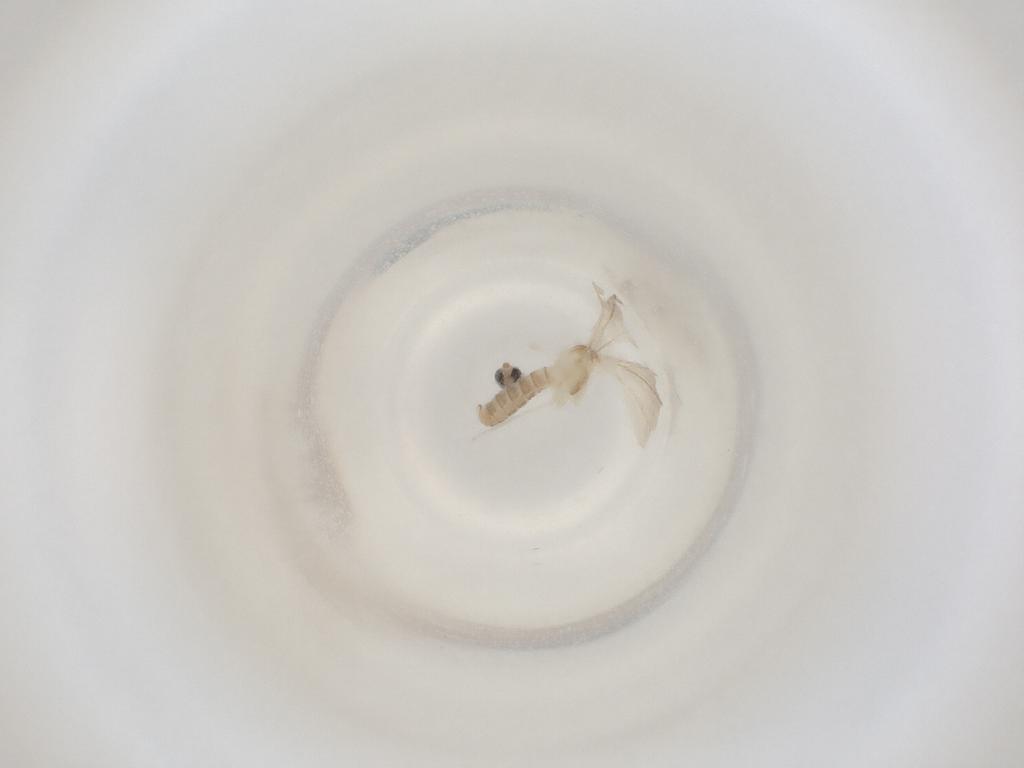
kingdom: Animalia
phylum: Arthropoda
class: Insecta
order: Diptera
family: Cecidomyiidae
